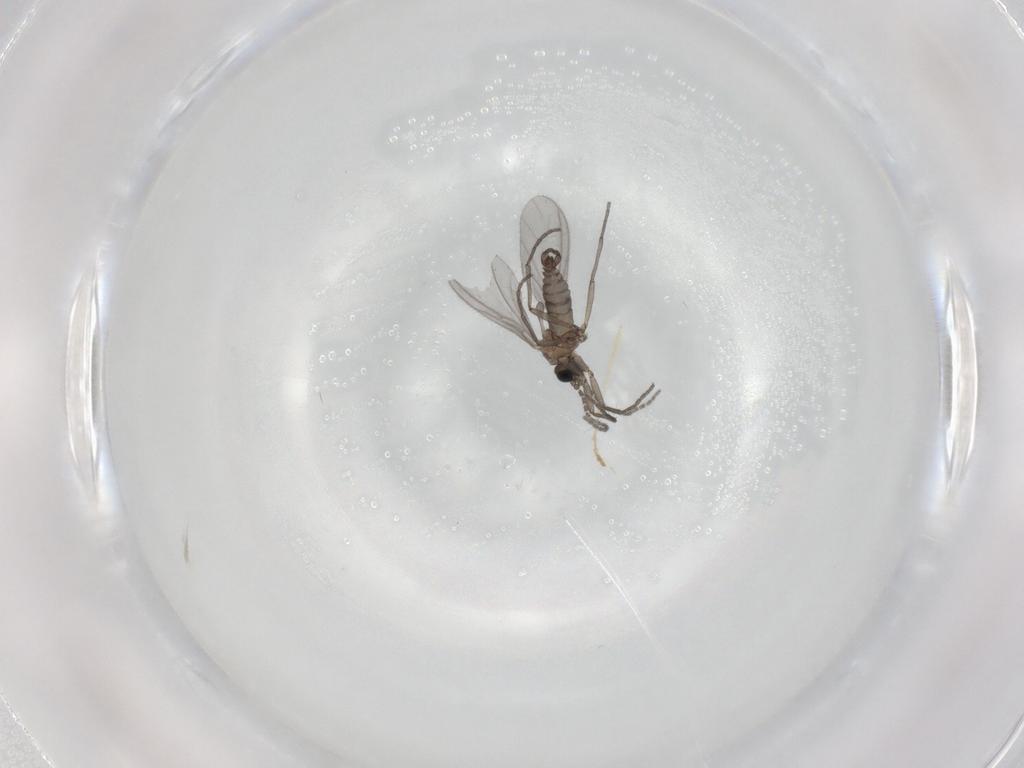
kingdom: Animalia
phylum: Arthropoda
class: Insecta
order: Diptera
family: Sciaridae
